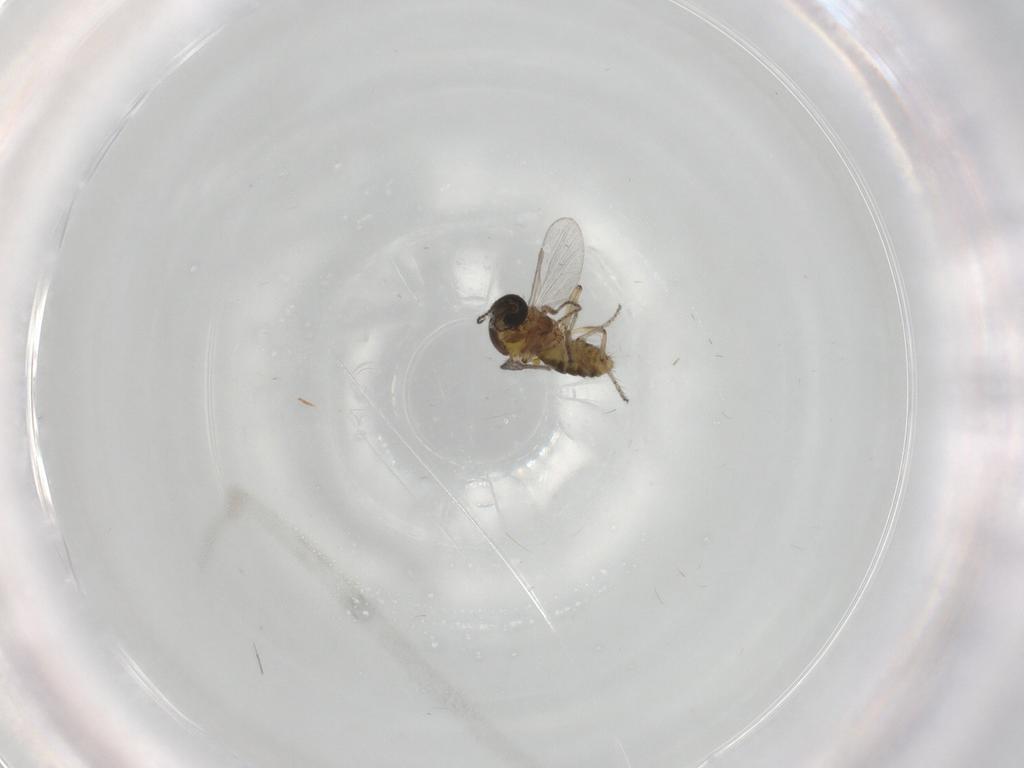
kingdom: Animalia
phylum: Arthropoda
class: Insecta
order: Diptera
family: Ceratopogonidae
